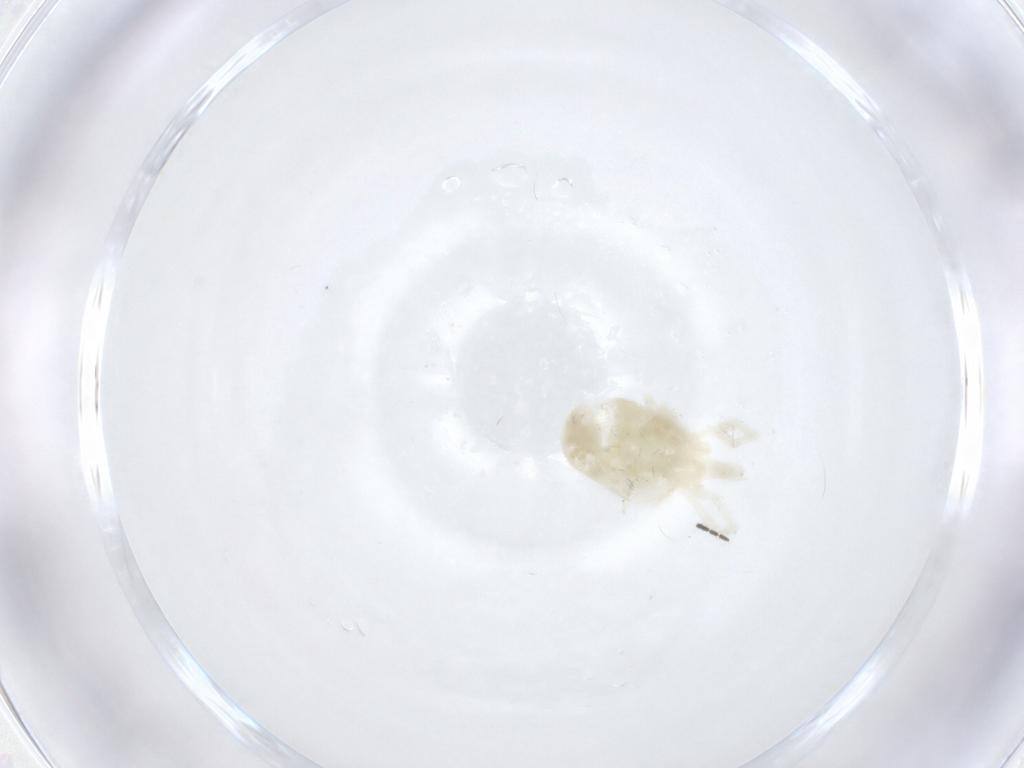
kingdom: Animalia
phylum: Arthropoda
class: Arachnida
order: Trombidiformes
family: Teneriffiidae
